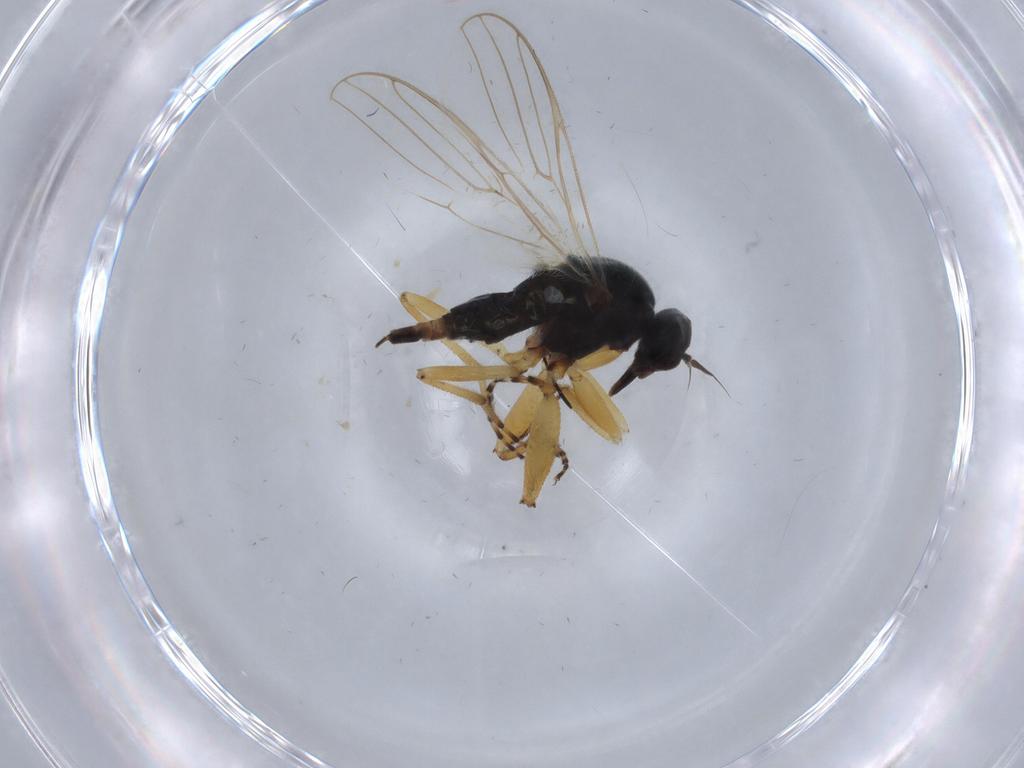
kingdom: Animalia
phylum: Arthropoda
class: Insecta
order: Diptera
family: Hybotidae
